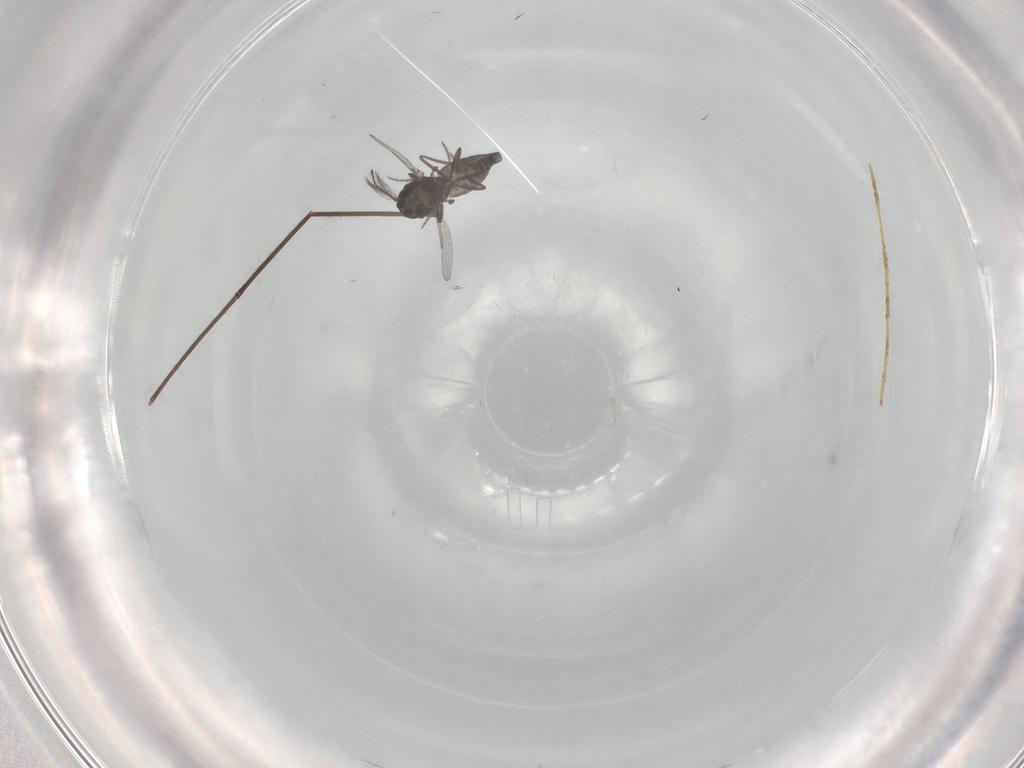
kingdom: Animalia
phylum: Arthropoda
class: Insecta
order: Diptera
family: Ceratopogonidae
